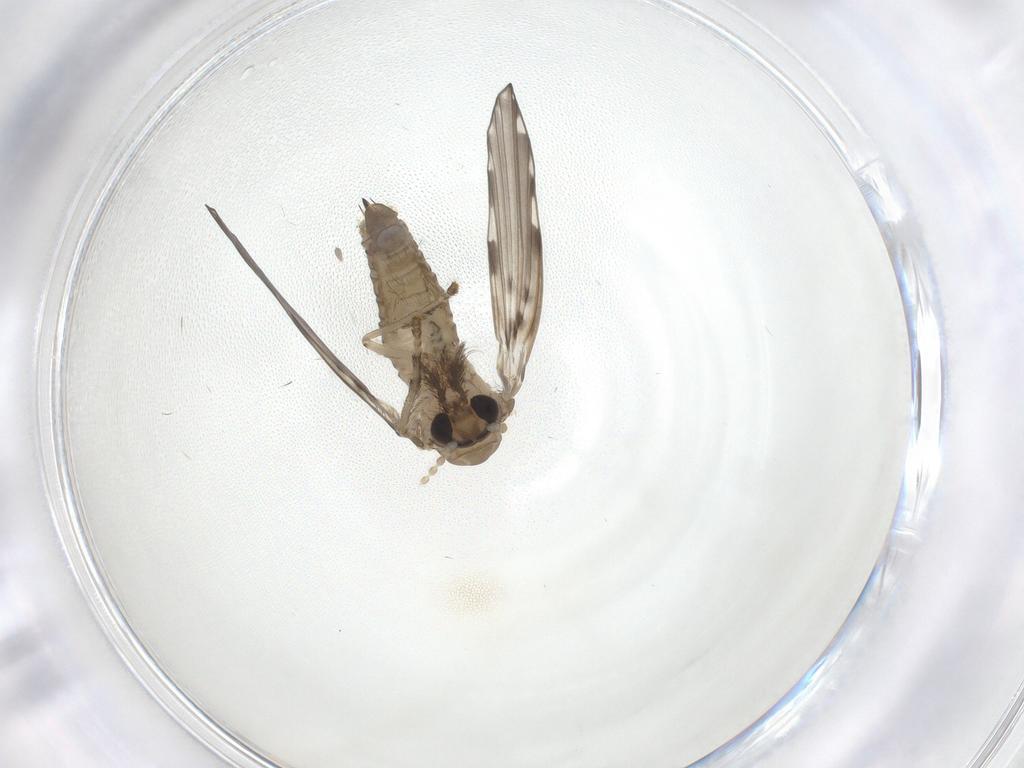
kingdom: Animalia
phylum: Arthropoda
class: Insecta
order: Diptera
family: Psychodidae
